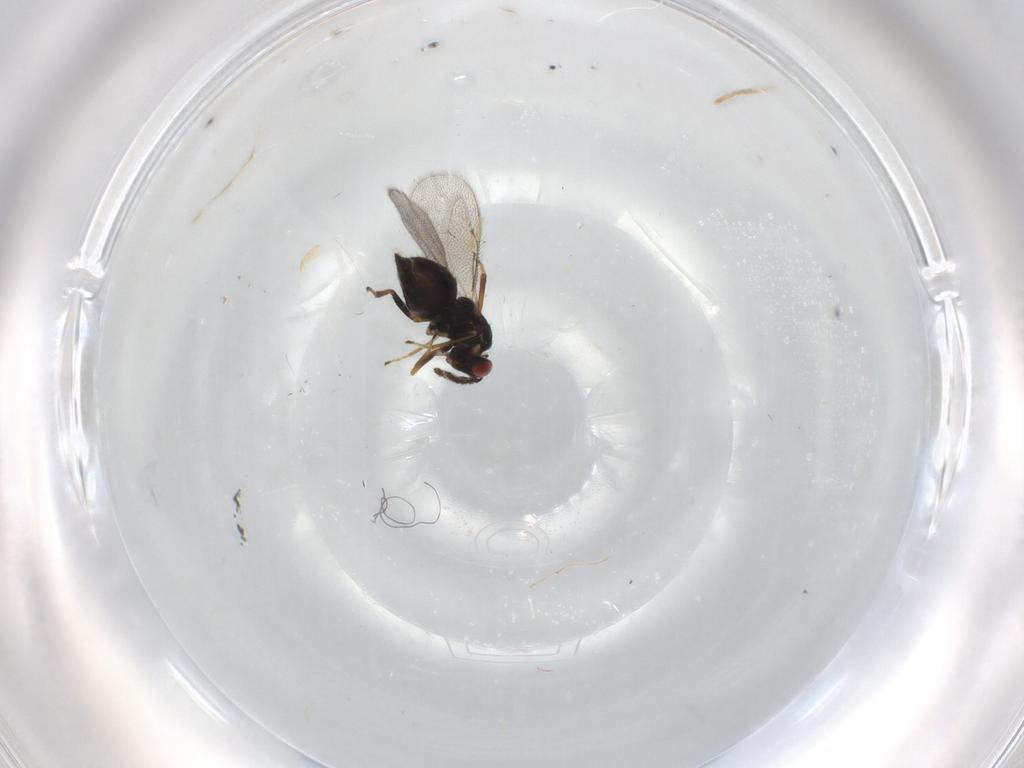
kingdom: Animalia
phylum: Arthropoda
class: Insecta
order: Hymenoptera
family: Eulophidae
